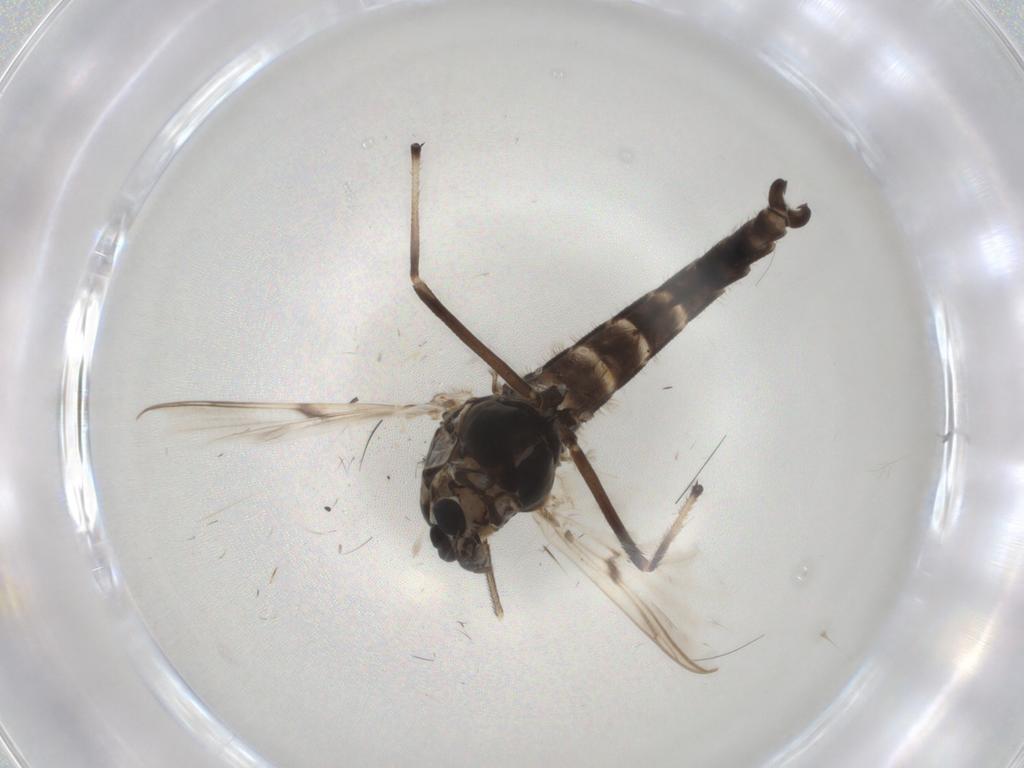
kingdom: Animalia
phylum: Arthropoda
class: Insecta
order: Diptera
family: Chironomidae
